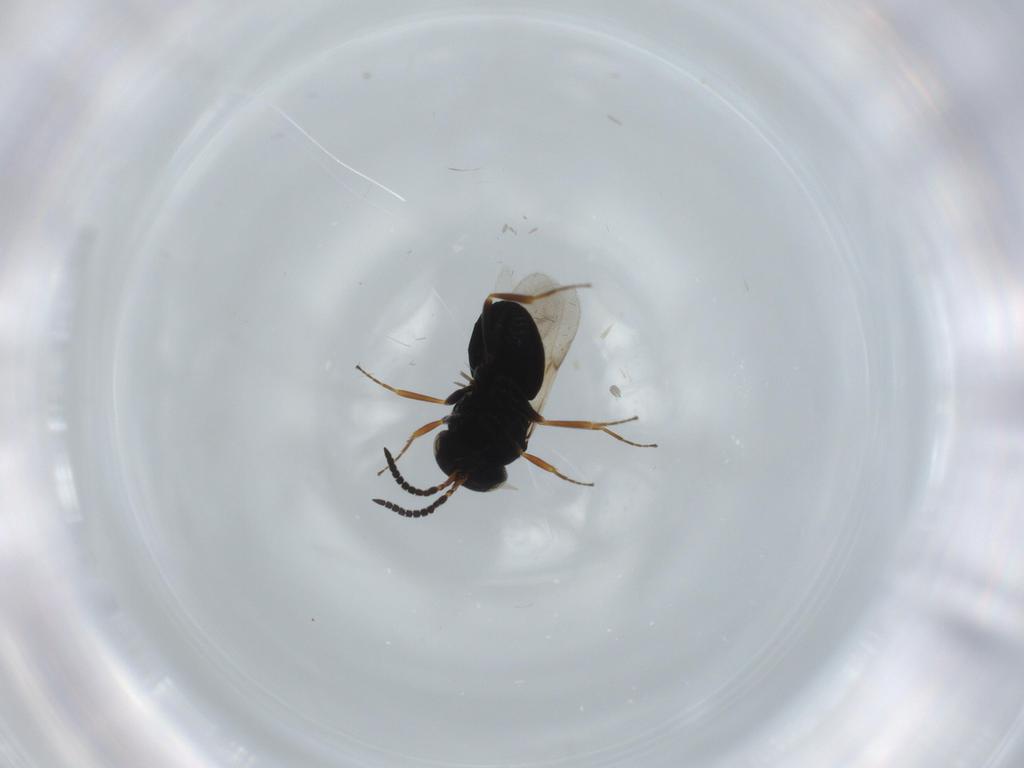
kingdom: Animalia
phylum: Arthropoda
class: Insecta
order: Hymenoptera
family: Scelionidae
